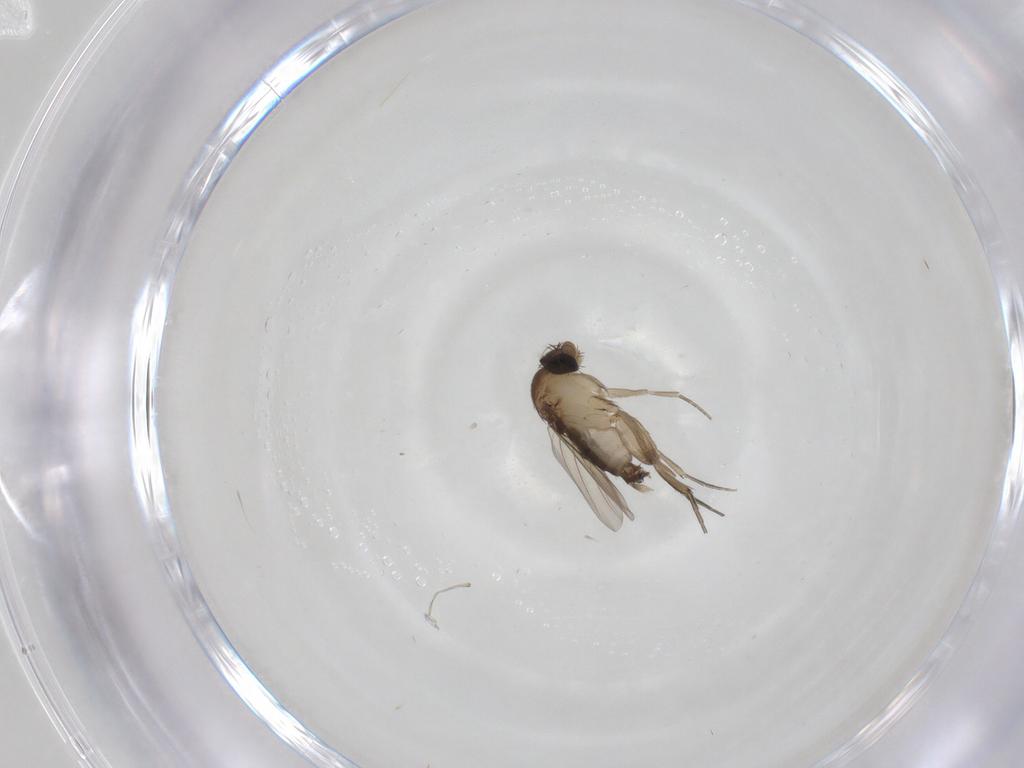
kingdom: Animalia
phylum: Arthropoda
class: Insecta
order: Diptera
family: Phoridae
